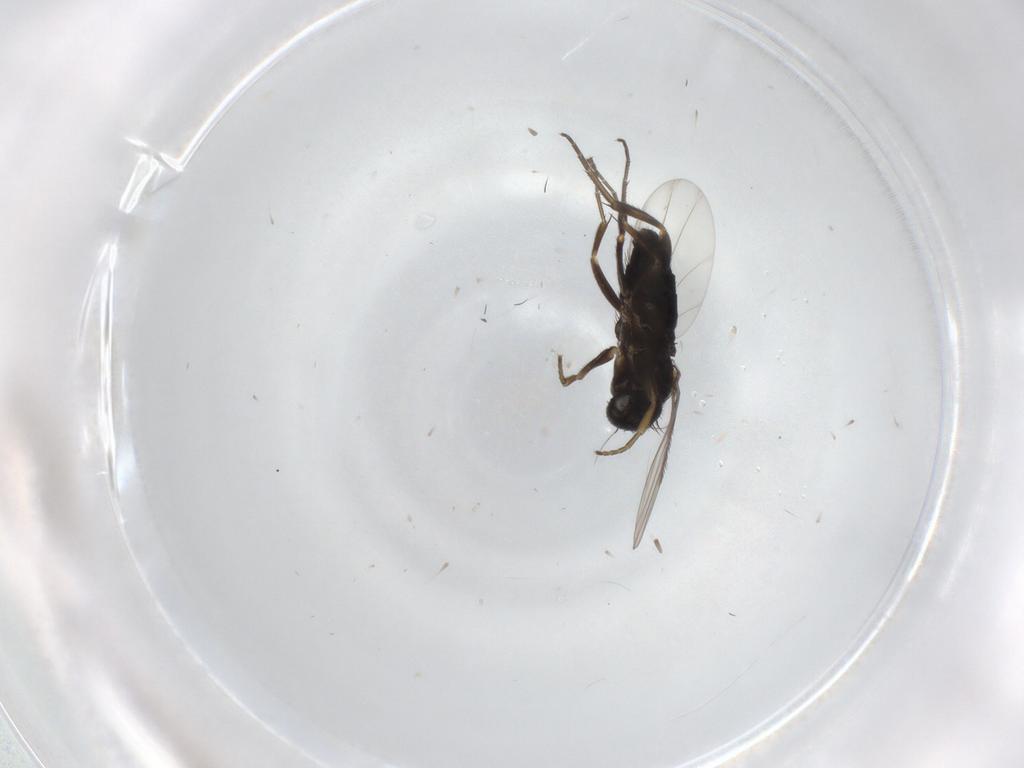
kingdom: Animalia
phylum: Arthropoda
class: Insecta
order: Diptera
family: Phoridae
